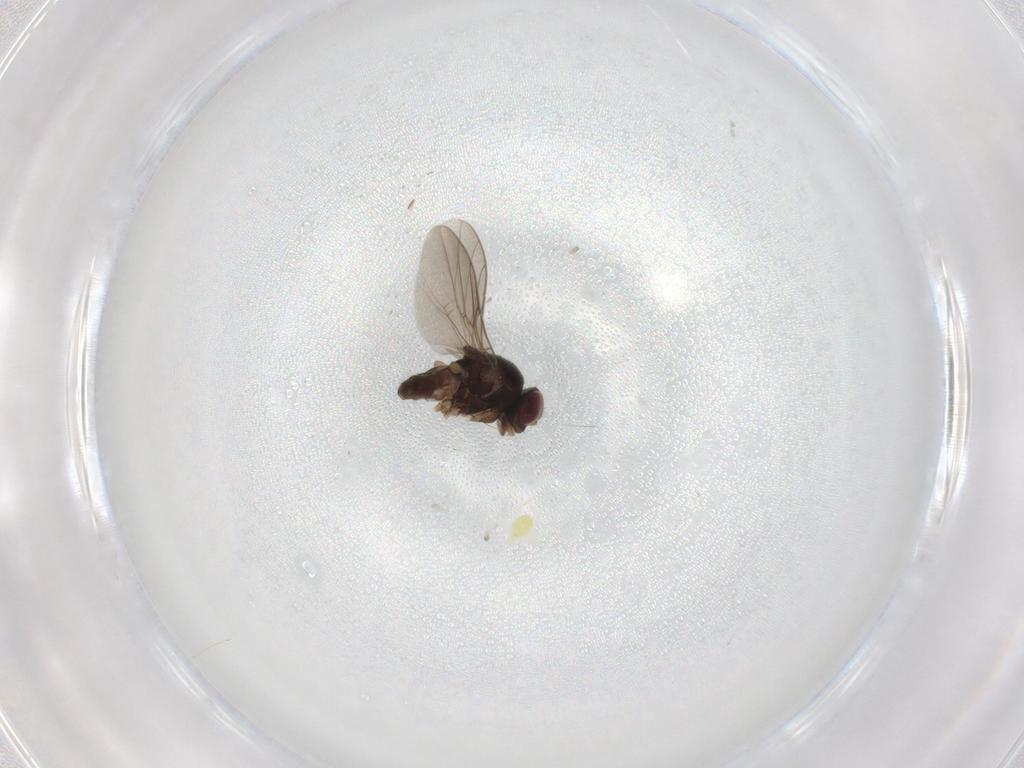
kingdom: Animalia
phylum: Arthropoda
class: Insecta
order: Diptera
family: Chloropidae
